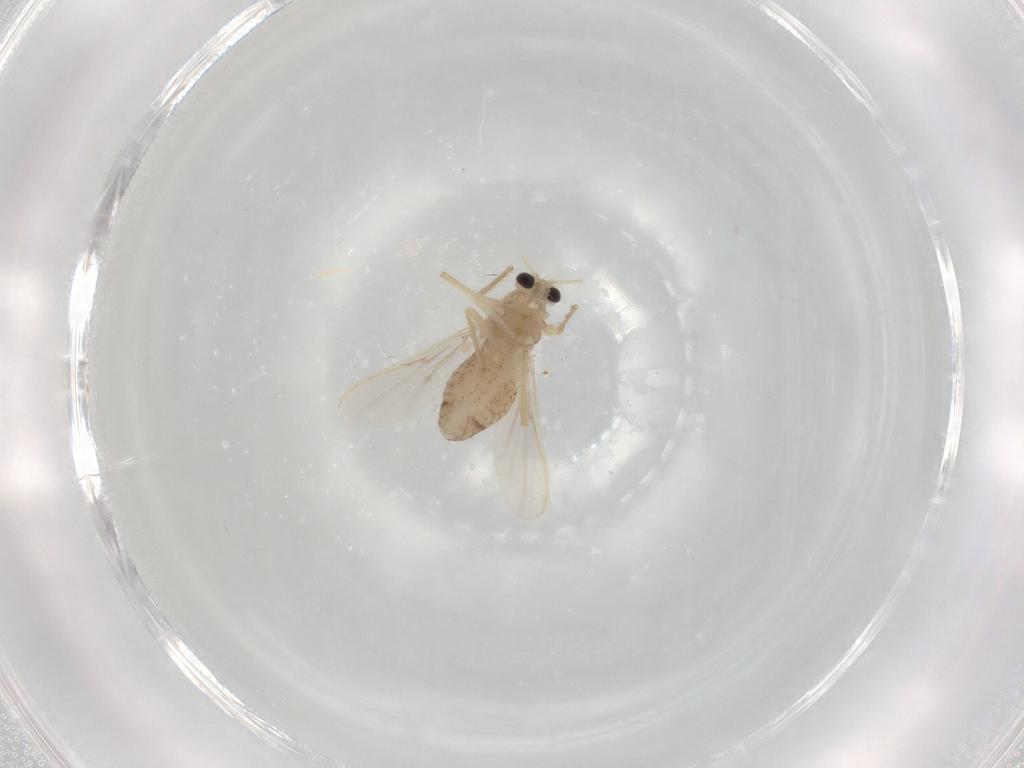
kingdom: Animalia
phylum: Arthropoda
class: Insecta
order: Diptera
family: Chironomidae
